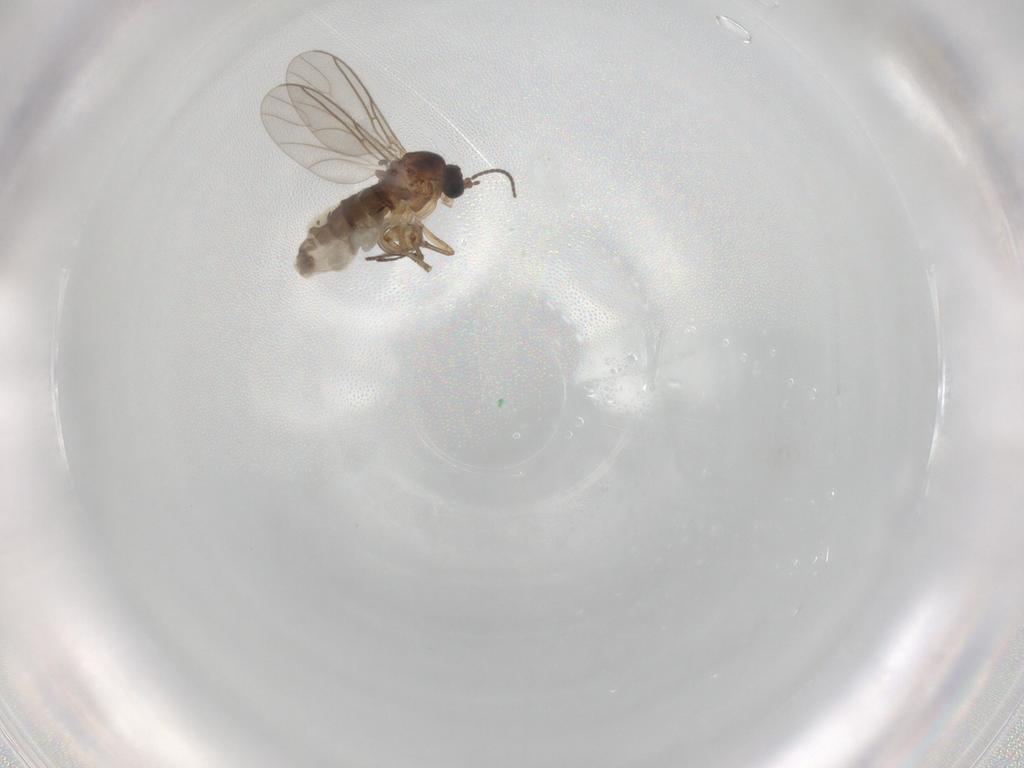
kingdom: Animalia
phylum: Arthropoda
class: Insecta
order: Diptera
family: Sciaridae
